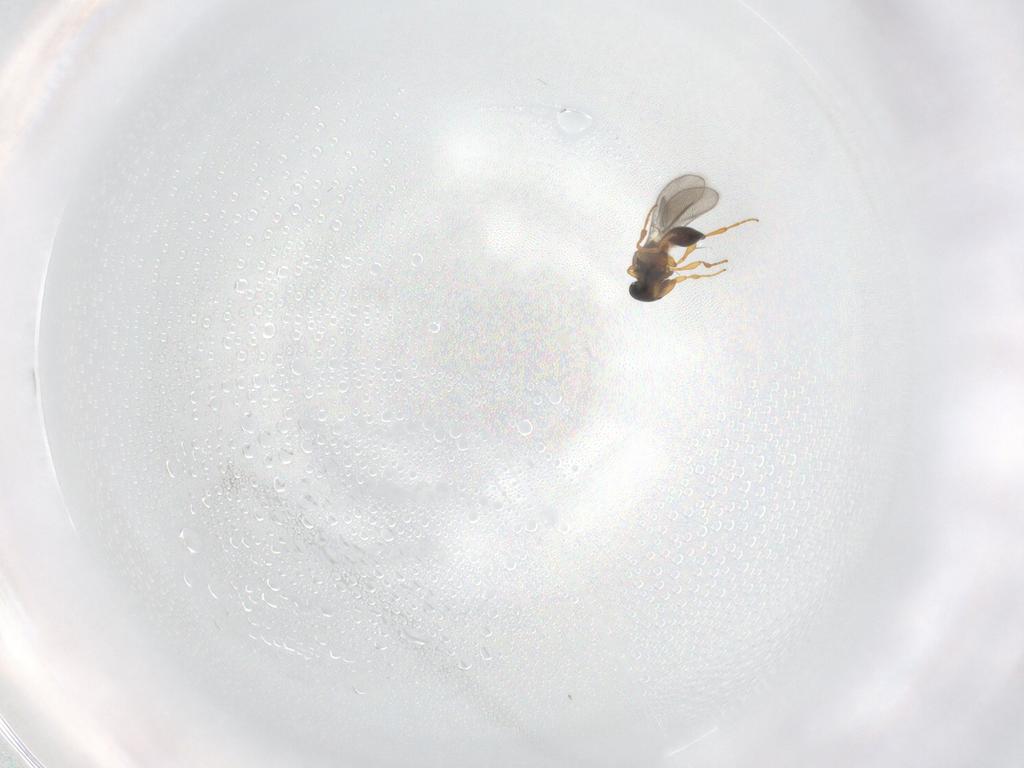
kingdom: Animalia
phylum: Arthropoda
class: Insecta
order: Hymenoptera
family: Platygastridae
